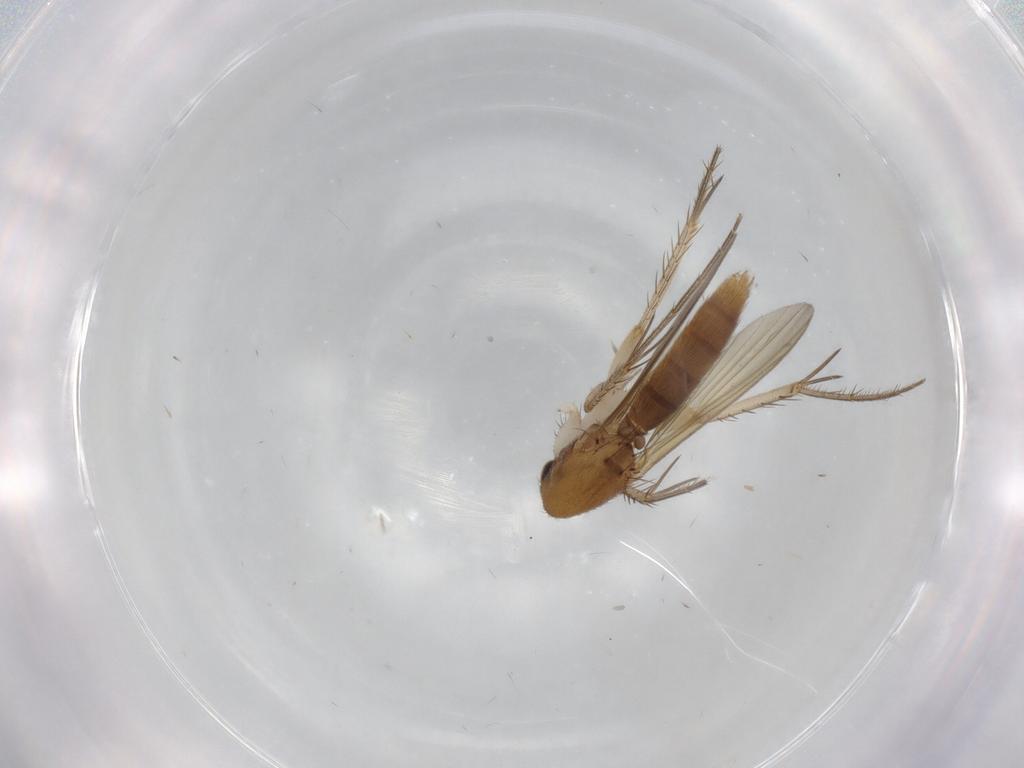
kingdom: Animalia
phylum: Arthropoda
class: Insecta
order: Diptera
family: Mycetophilidae
